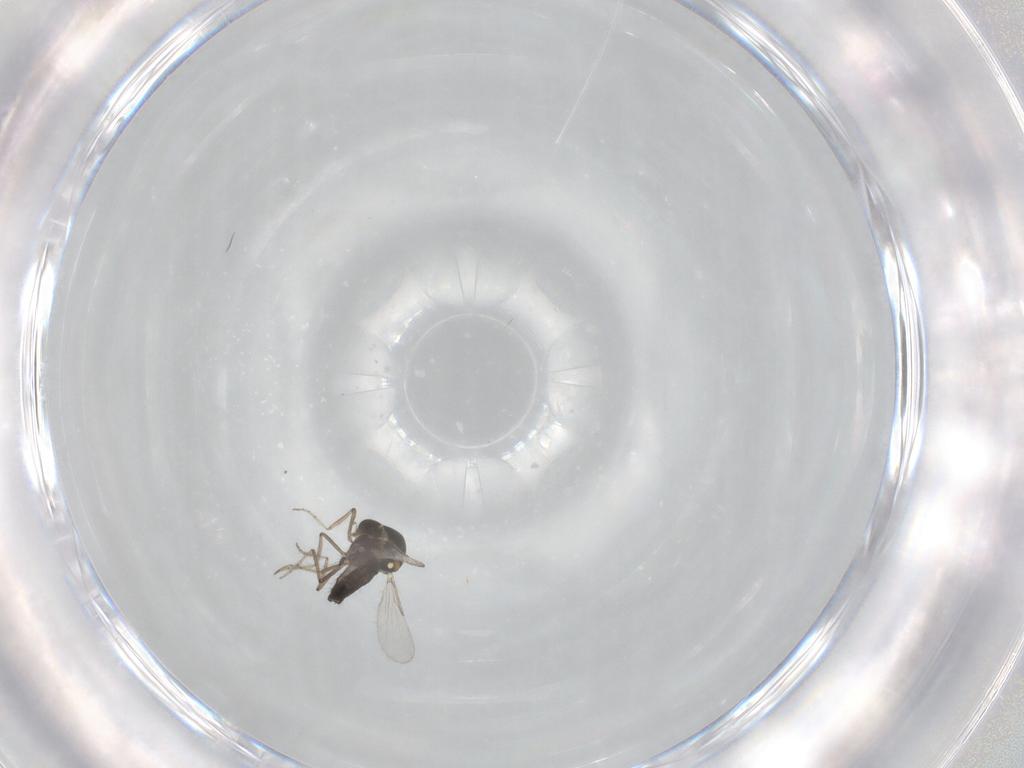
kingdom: Animalia
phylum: Arthropoda
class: Insecta
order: Diptera
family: Ceratopogonidae
